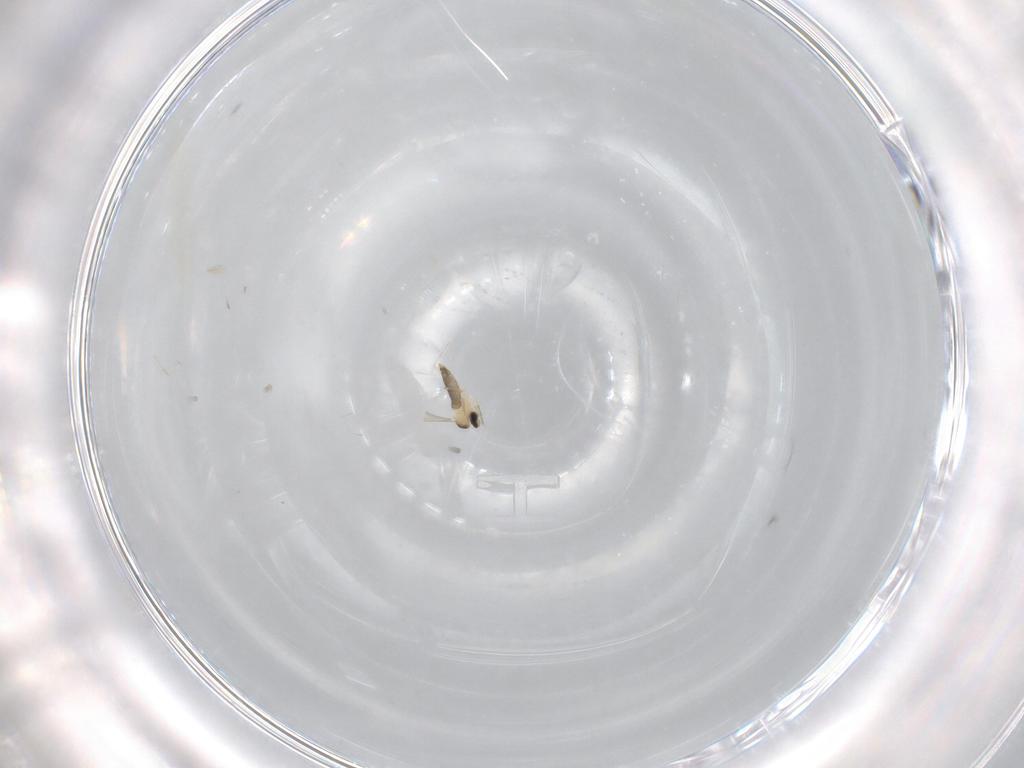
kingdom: Animalia
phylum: Arthropoda
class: Insecta
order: Diptera
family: Cecidomyiidae
